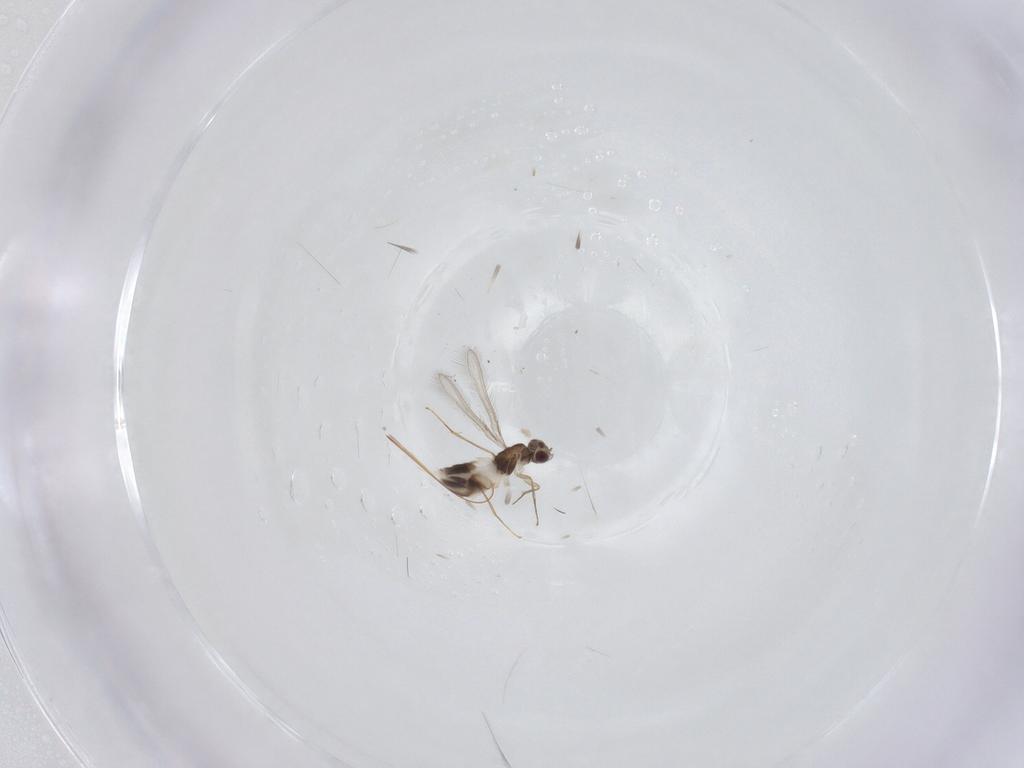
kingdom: Animalia
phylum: Arthropoda
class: Insecta
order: Hymenoptera
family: Mymaridae
